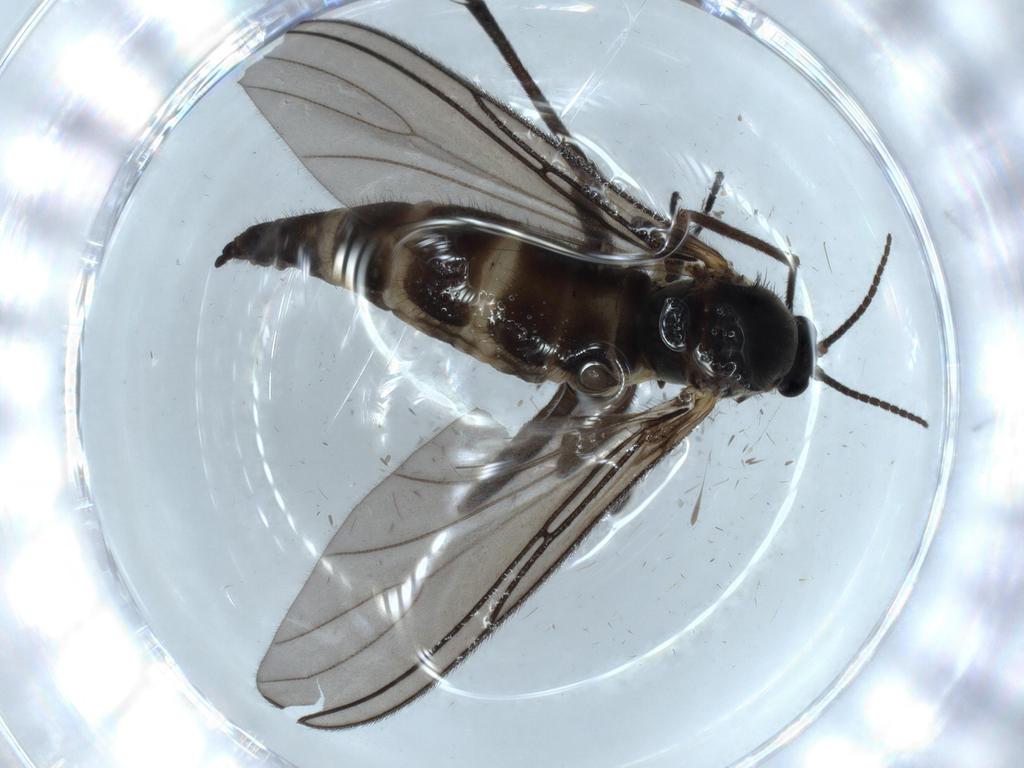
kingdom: Animalia
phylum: Arthropoda
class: Insecta
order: Diptera
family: Sciaridae
